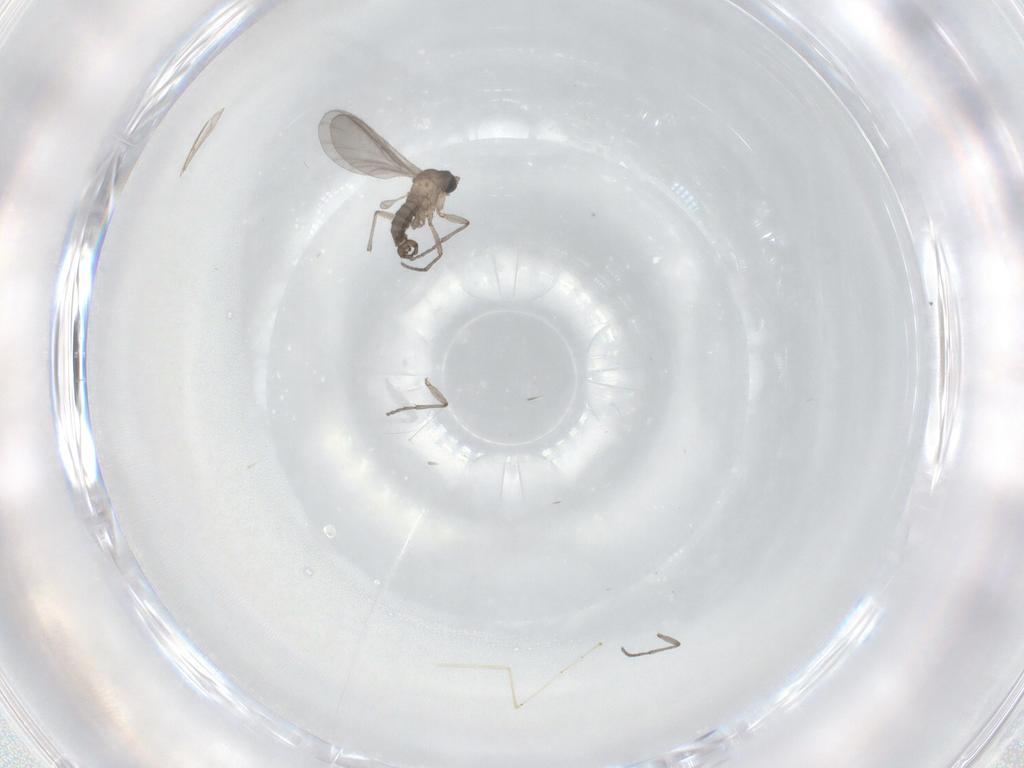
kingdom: Animalia
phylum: Arthropoda
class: Insecta
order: Diptera
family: Sciaridae
